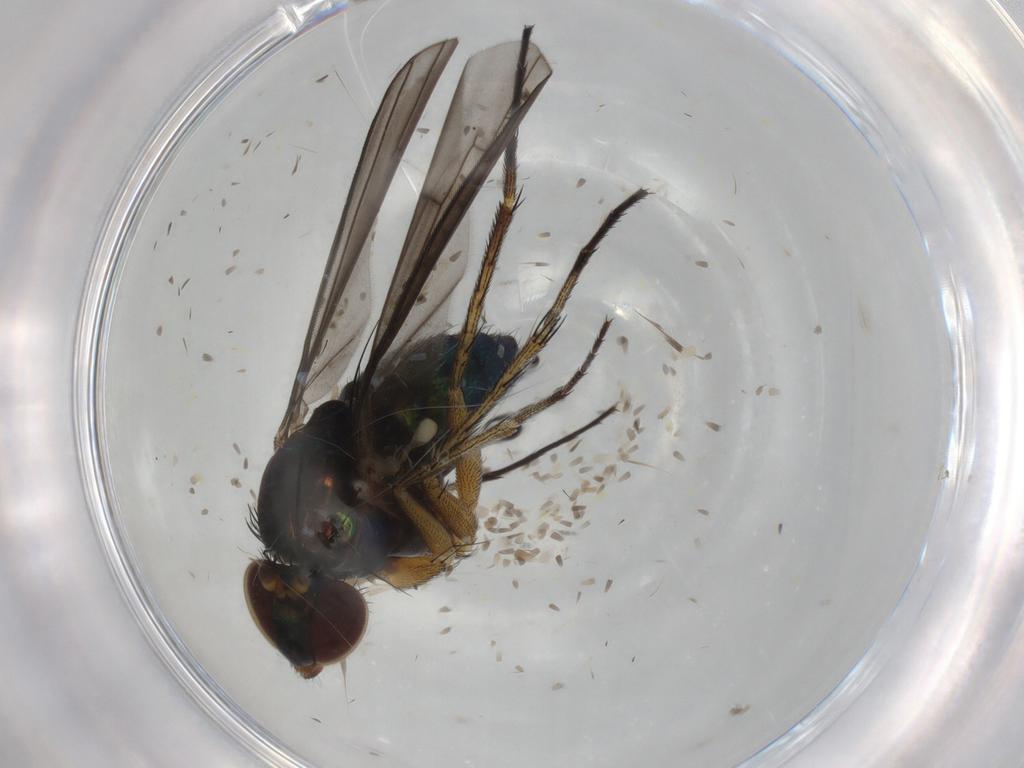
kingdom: Animalia
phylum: Arthropoda
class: Insecta
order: Diptera
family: Dolichopodidae
